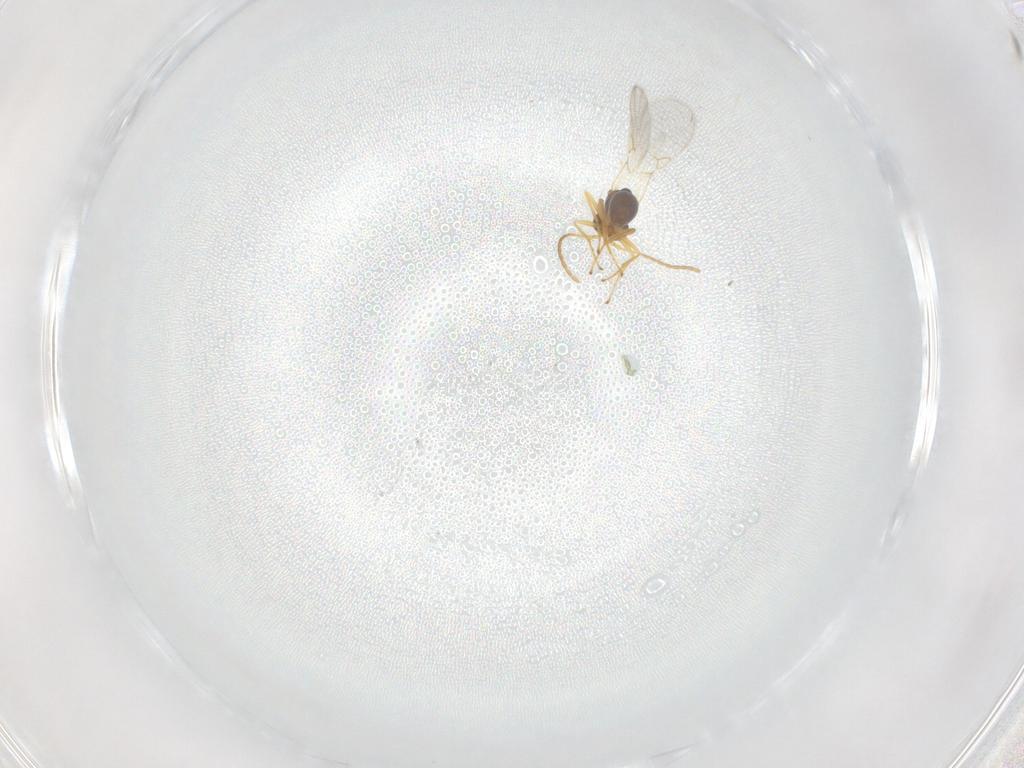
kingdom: Animalia
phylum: Arthropoda
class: Insecta
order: Hymenoptera
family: Figitidae
